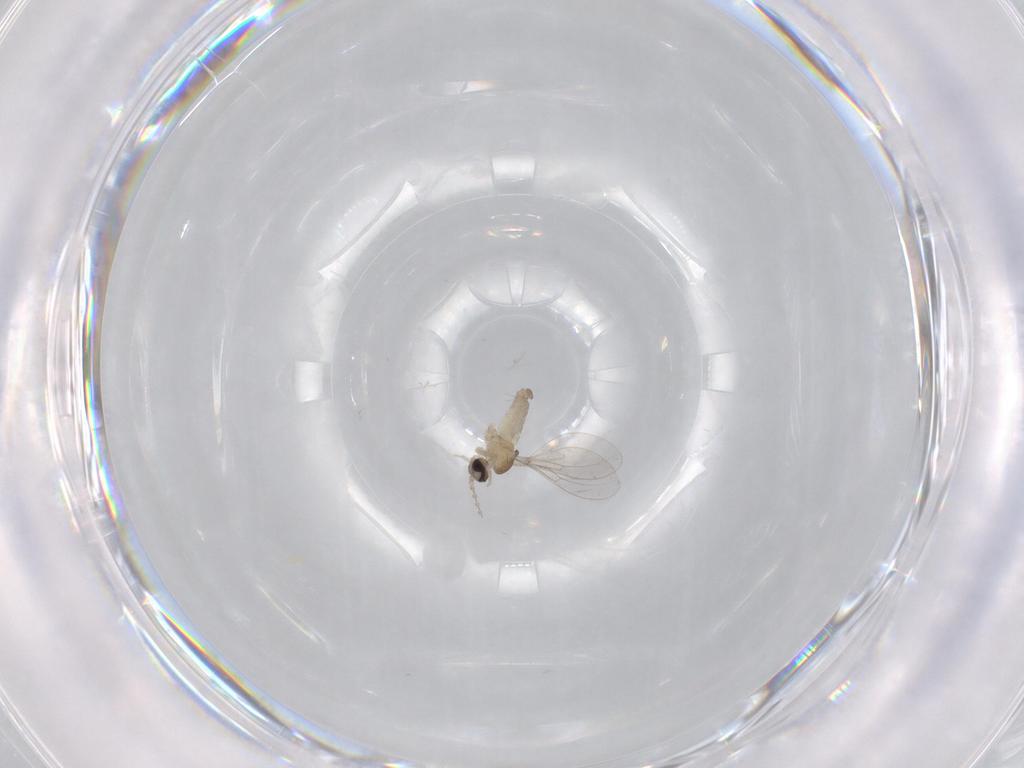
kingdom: Animalia
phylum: Arthropoda
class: Insecta
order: Diptera
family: Cecidomyiidae
